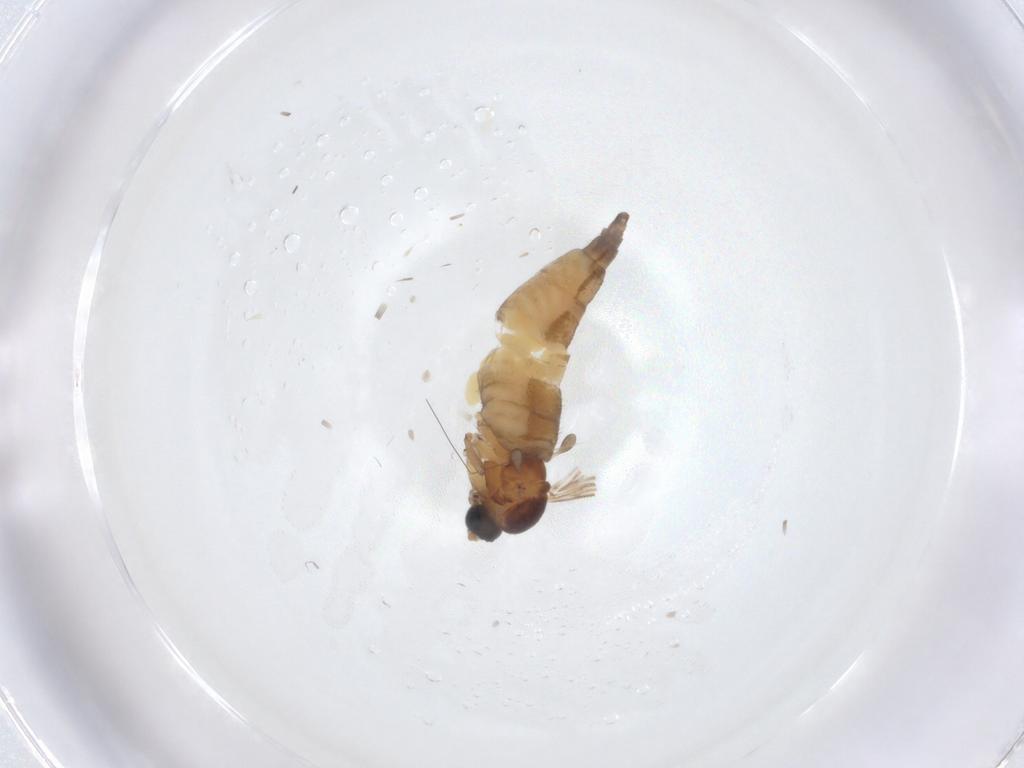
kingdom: Animalia
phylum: Arthropoda
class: Insecta
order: Diptera
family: Sciaridae
